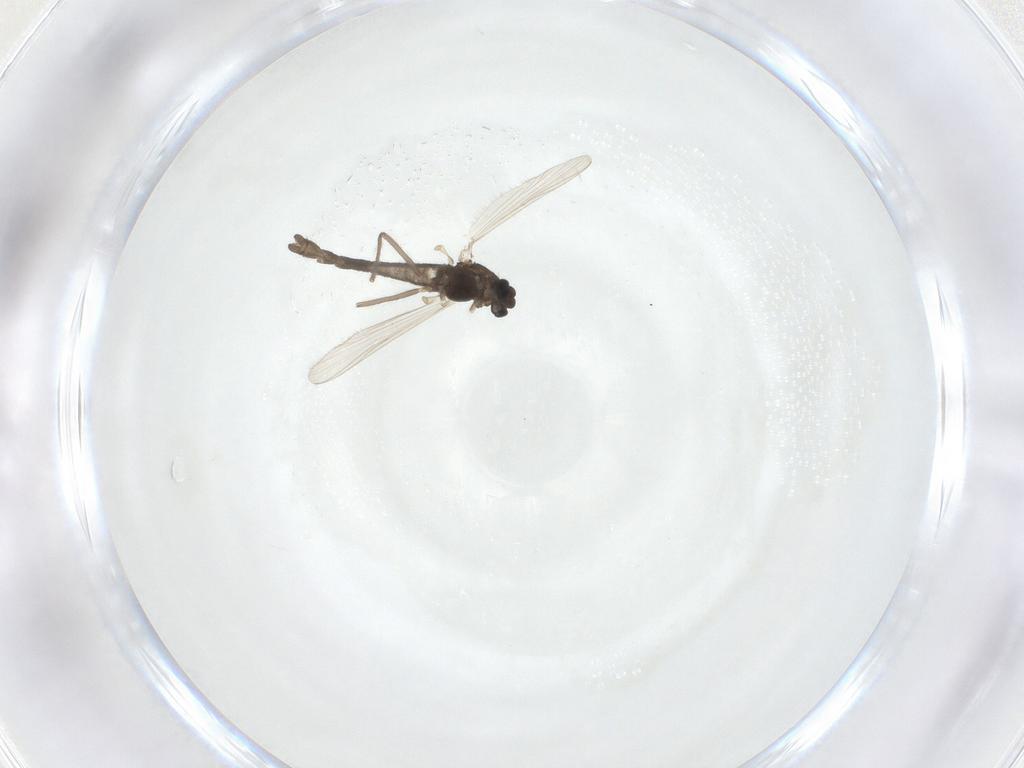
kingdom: Animalia
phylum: Arthropoda
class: Insecta
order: Diptera
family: Chironomidae
